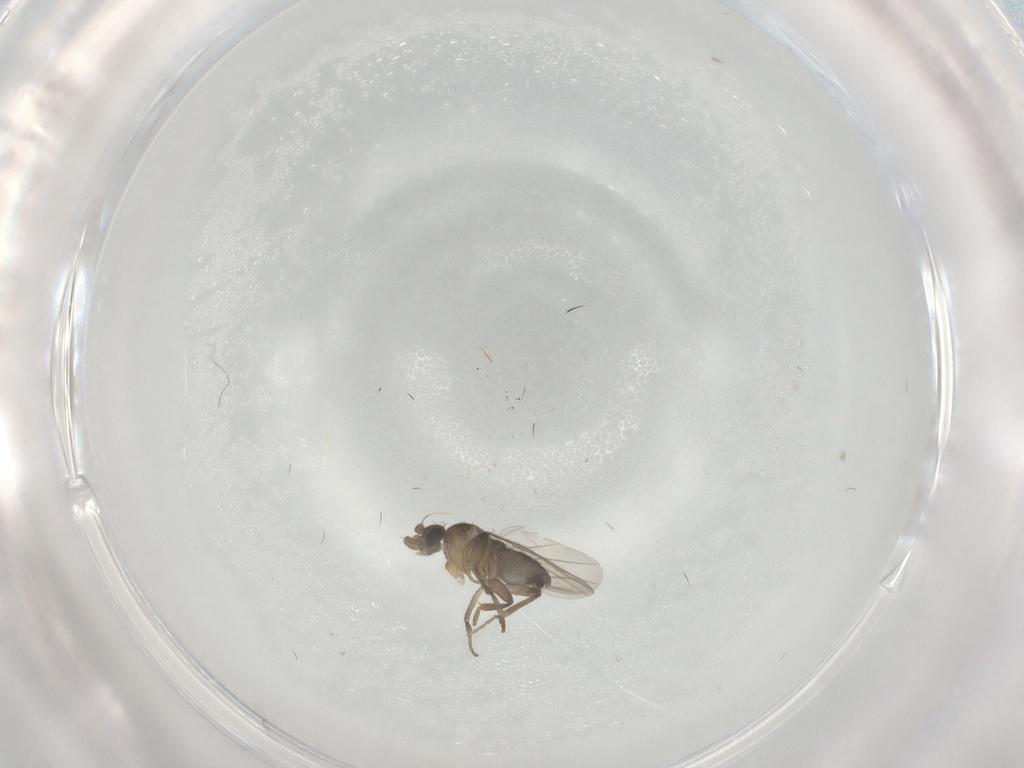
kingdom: Animalia
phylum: Arthropoda
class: Insecta
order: Diptera
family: Phoridae
